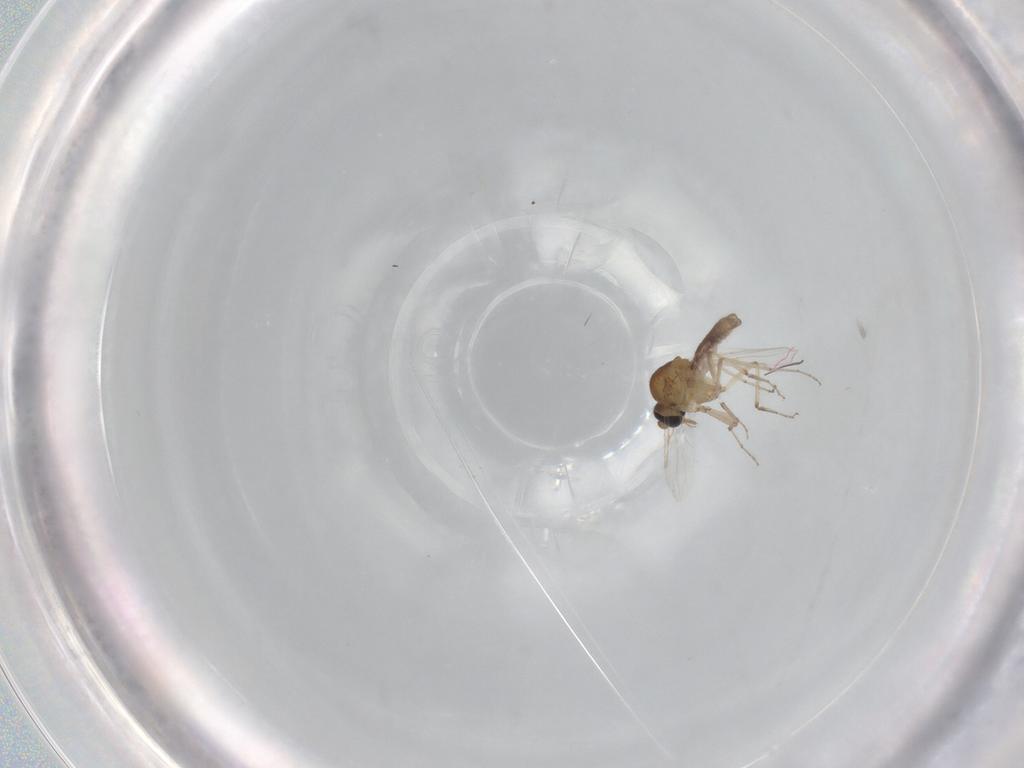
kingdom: Animalia
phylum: Arthropoda
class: Insecta
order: Diptera
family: Ceratopogonidae
